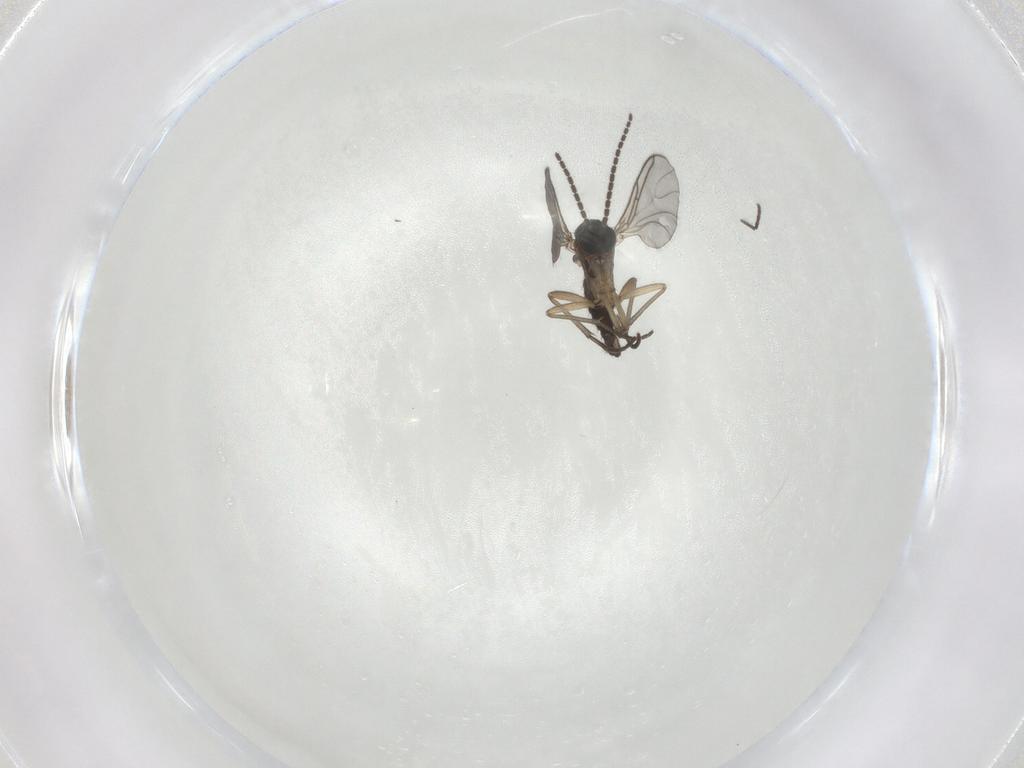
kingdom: Animalia
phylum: Arthropoda
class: Insecta
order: Diptera
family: Sciaridae
